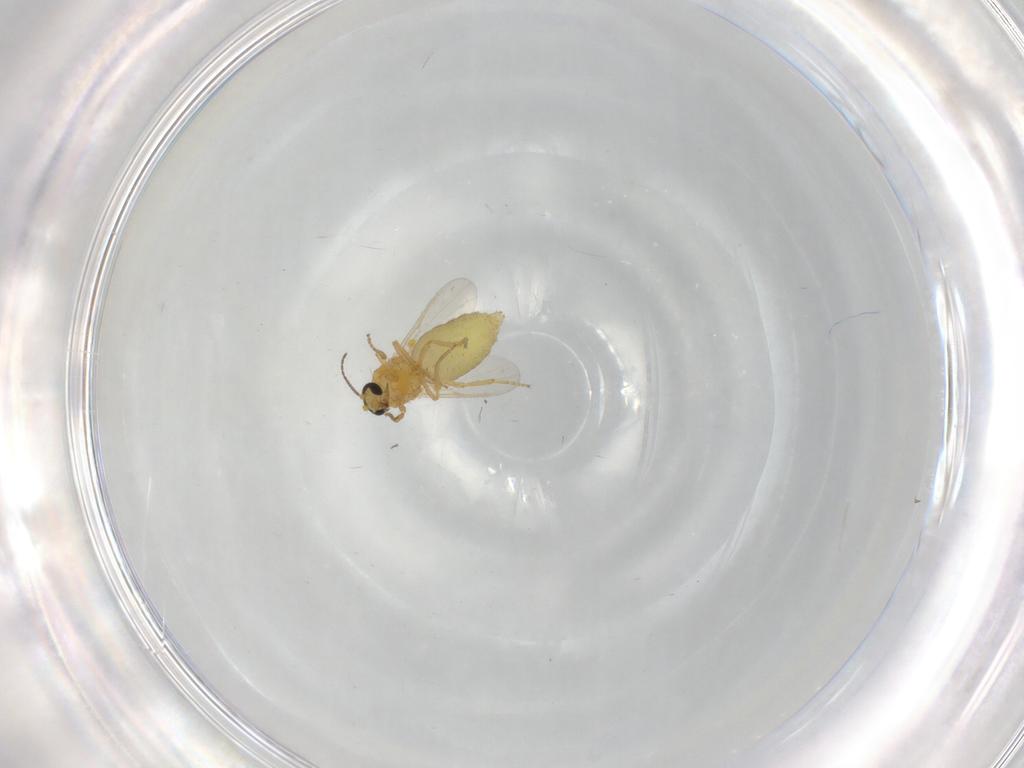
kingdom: Animalia
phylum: Arthropoda
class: Insecta
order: Diptera
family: Ceratopogonidae
